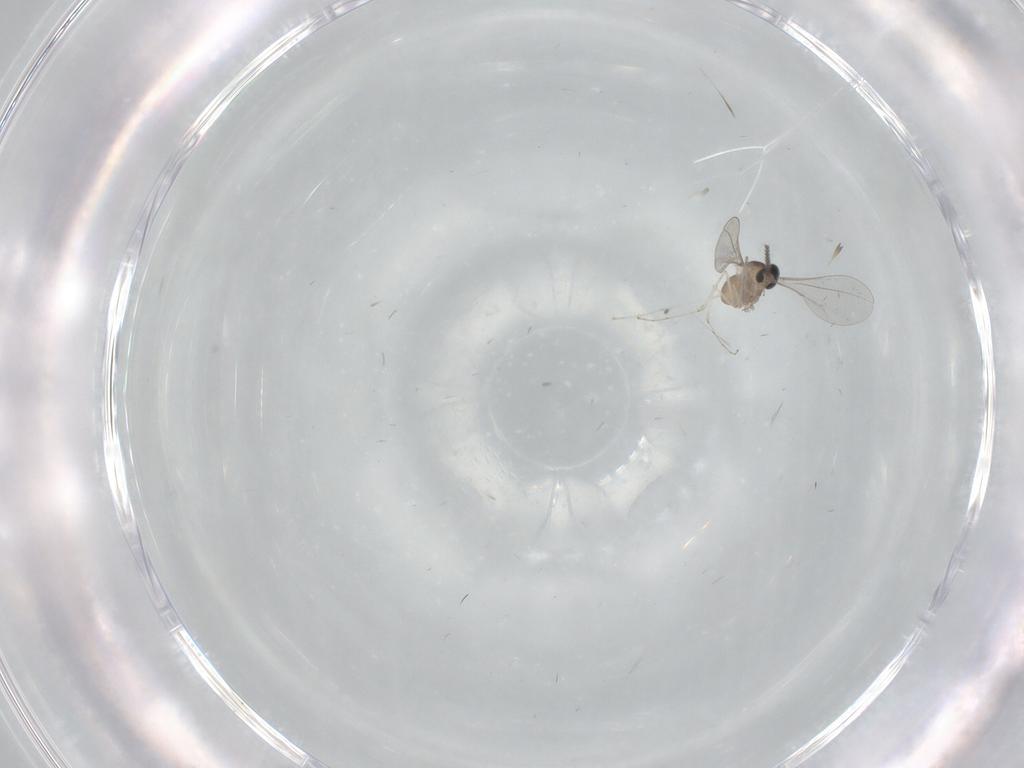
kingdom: Animalia
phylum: Arthropoda
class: Insecta
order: Diptera
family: Cecidomyiidae
